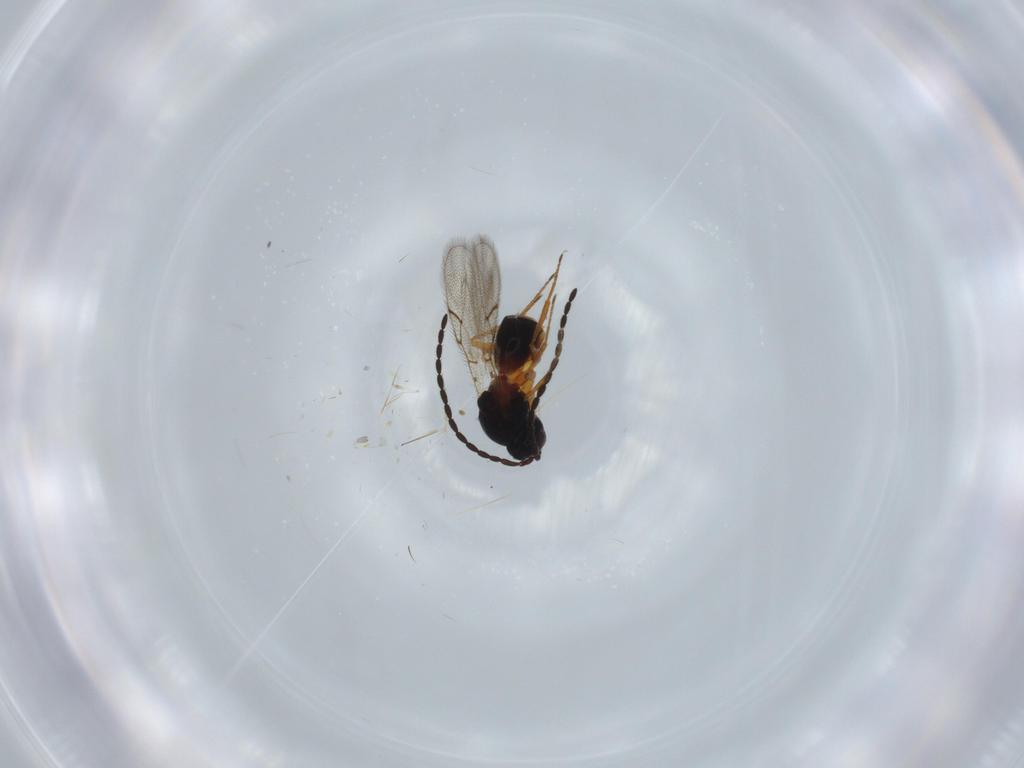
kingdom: Animalia
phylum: Arthropoda
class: Insecta
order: Hymenoptera
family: Figitidae
